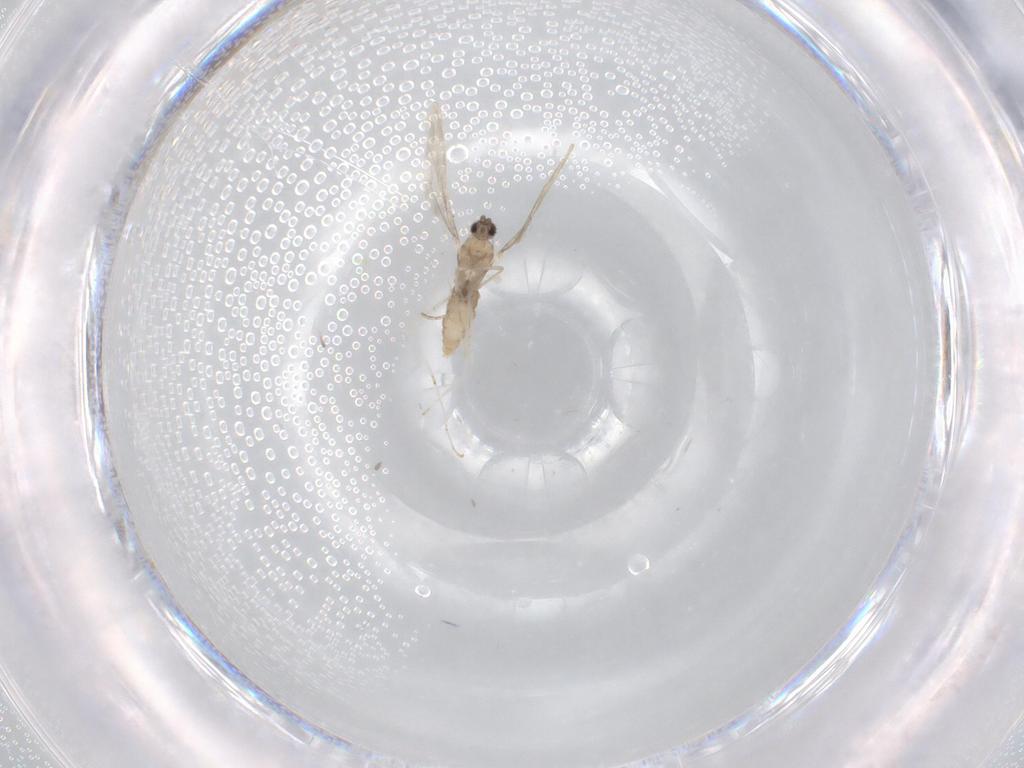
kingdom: Animalia
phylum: Arthropoda
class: Insecta
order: Diptera
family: Cecidomyiidae
